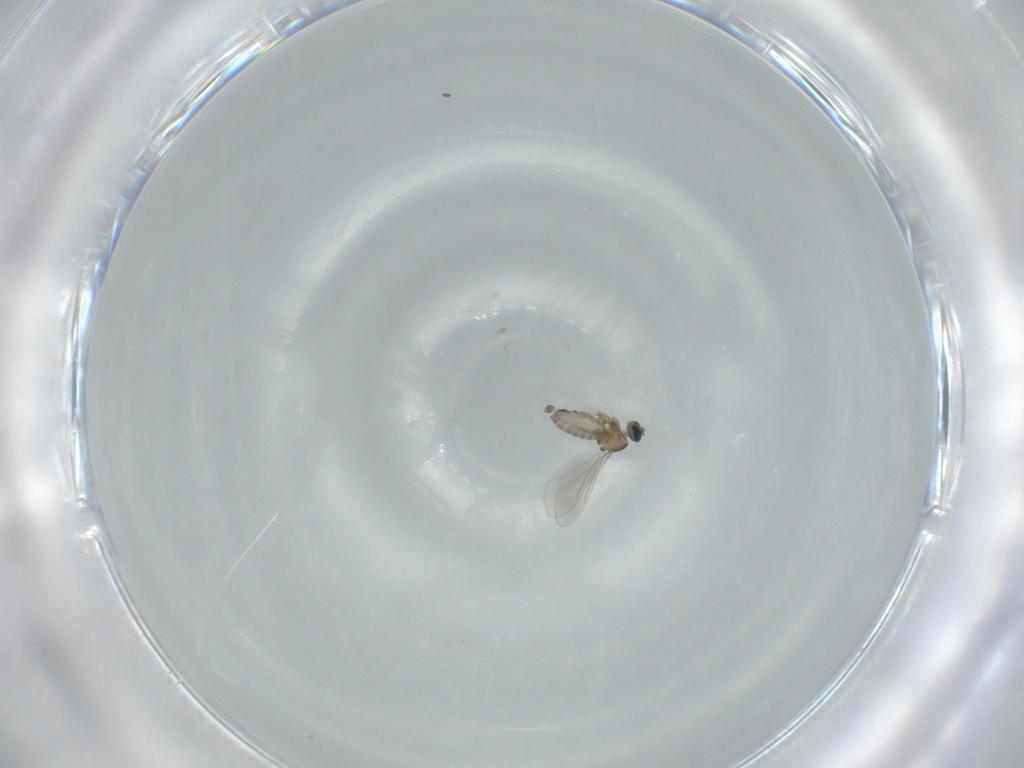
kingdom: Animalia
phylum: Arthropoda
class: Insecta
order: Diptera
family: Cecidomyiidae
